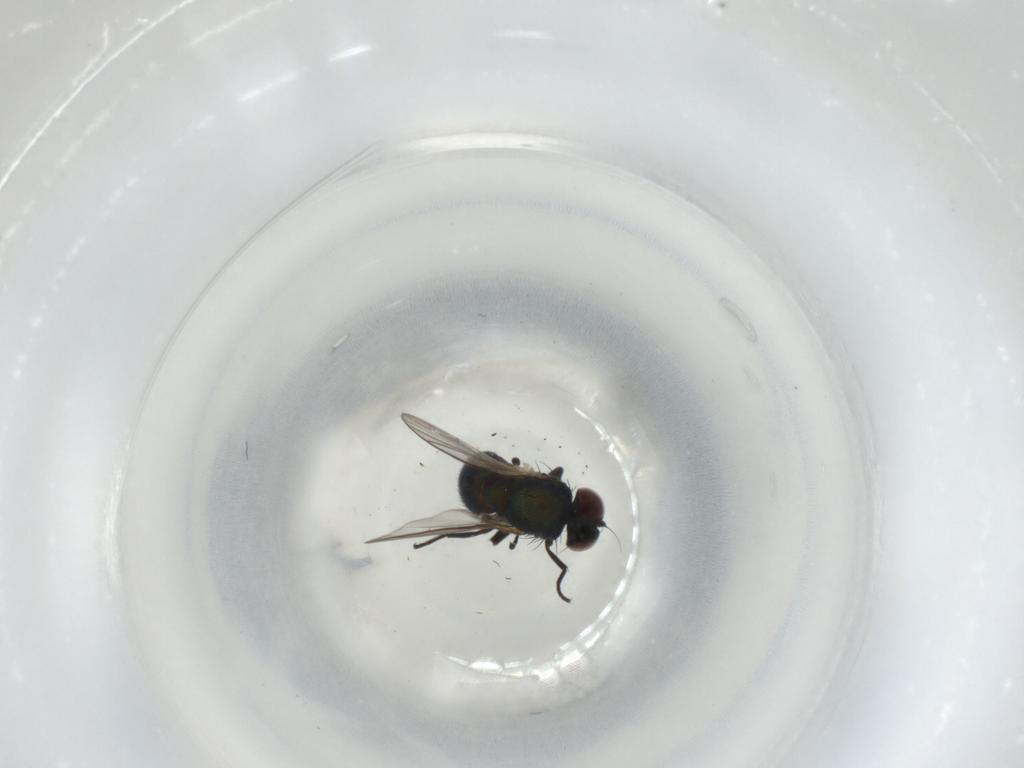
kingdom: Animalia
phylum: Arthropoda
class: Insecta
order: Diptera
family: Agromyzidae
